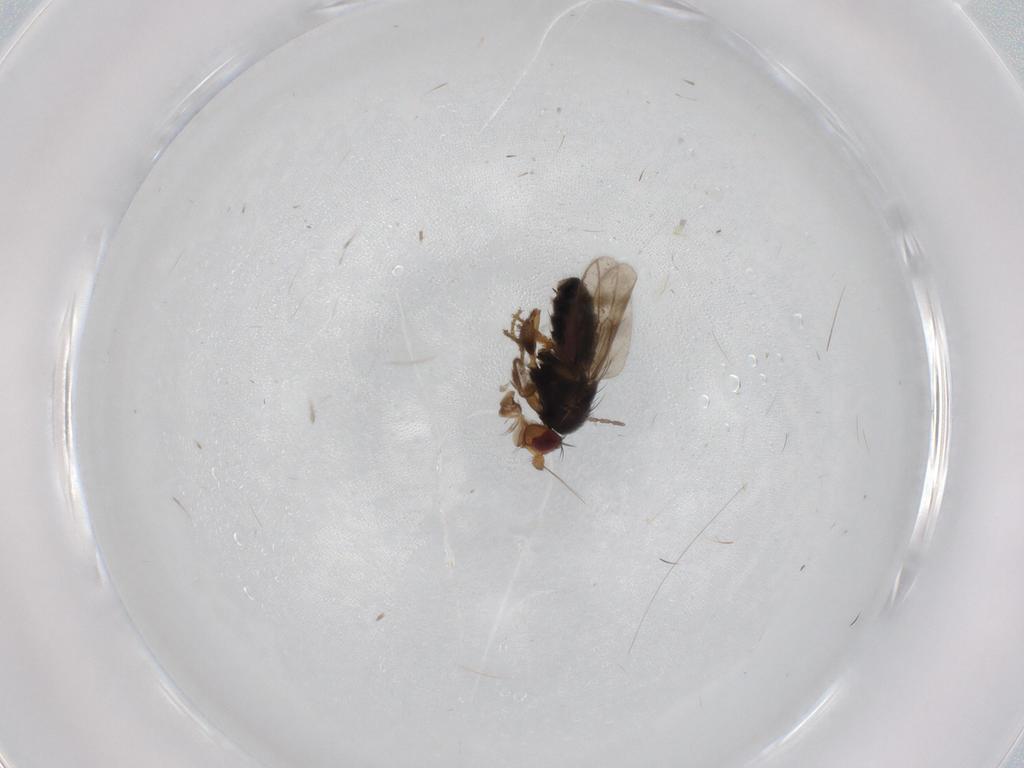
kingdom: Animalia
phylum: Arthropoda
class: Insecta
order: Diptera
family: Sphaeroceridae
